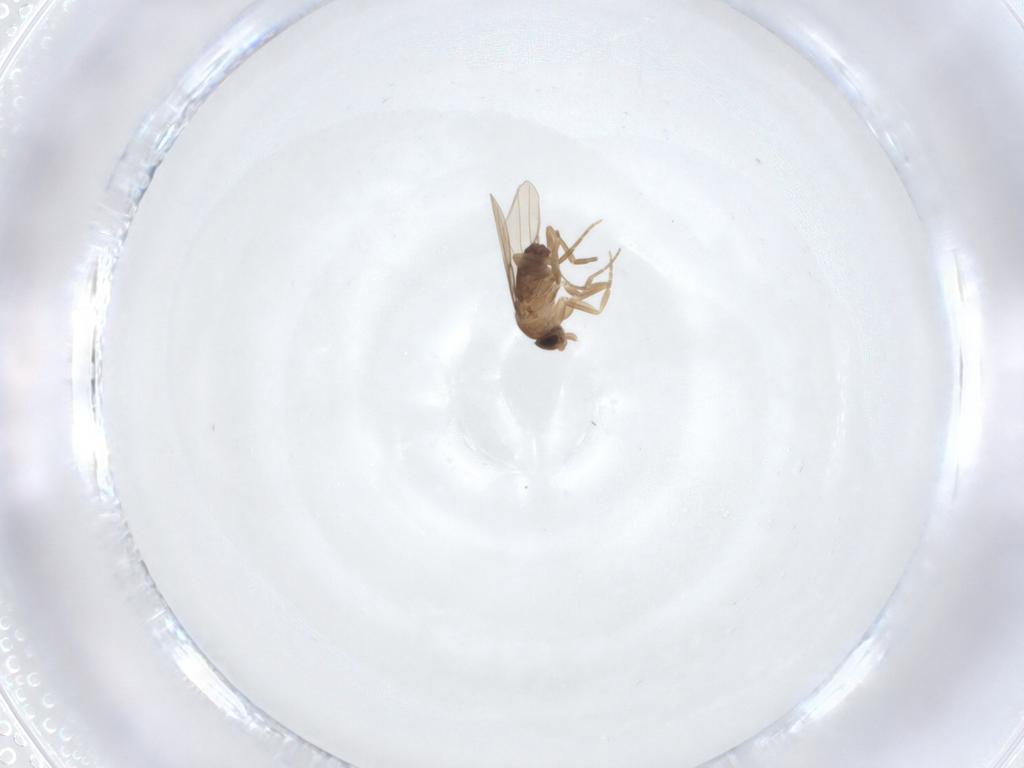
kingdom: Animalia
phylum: Arthropoda
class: Insecta
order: Diptera
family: Phoridae
